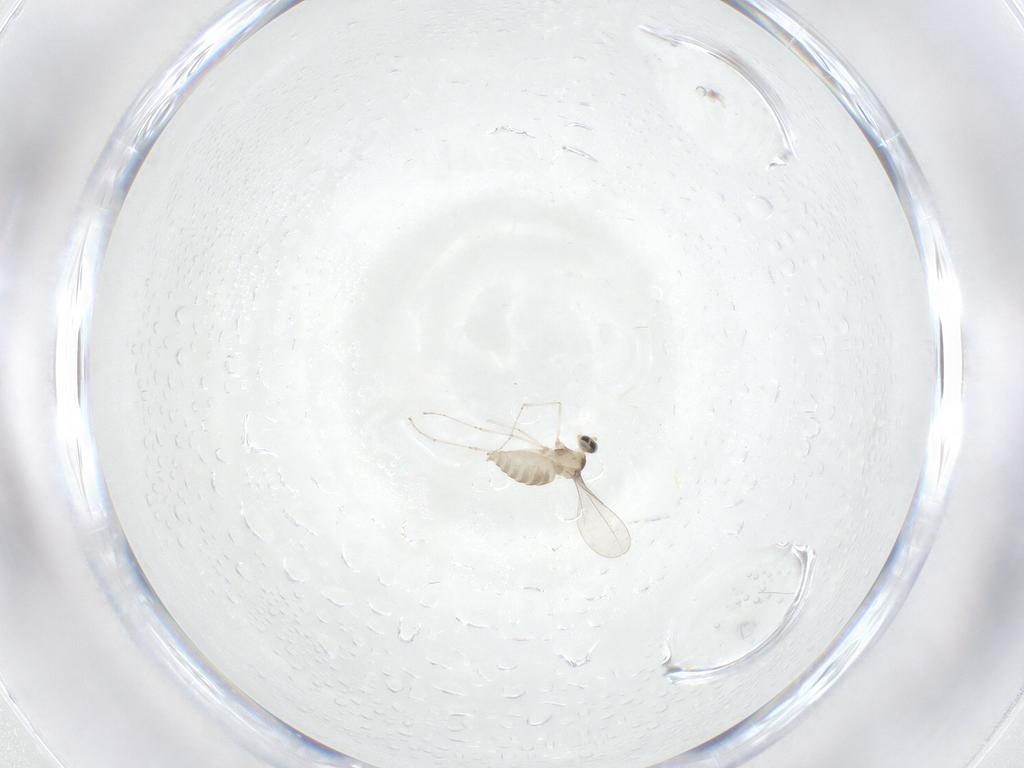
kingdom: Animalia
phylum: Arthropoda
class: Insecta
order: Diptera
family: Cecidomyiidae
